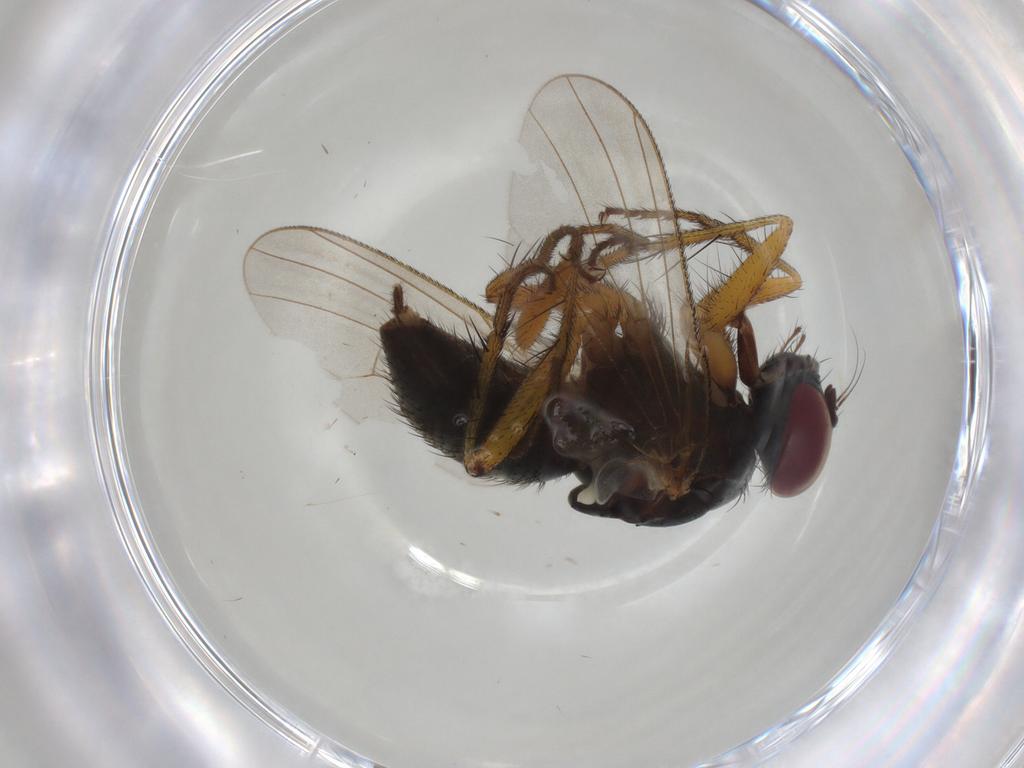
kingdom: Animalia
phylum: Arthropoda
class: Insecta
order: Diptera
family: Muscidae
